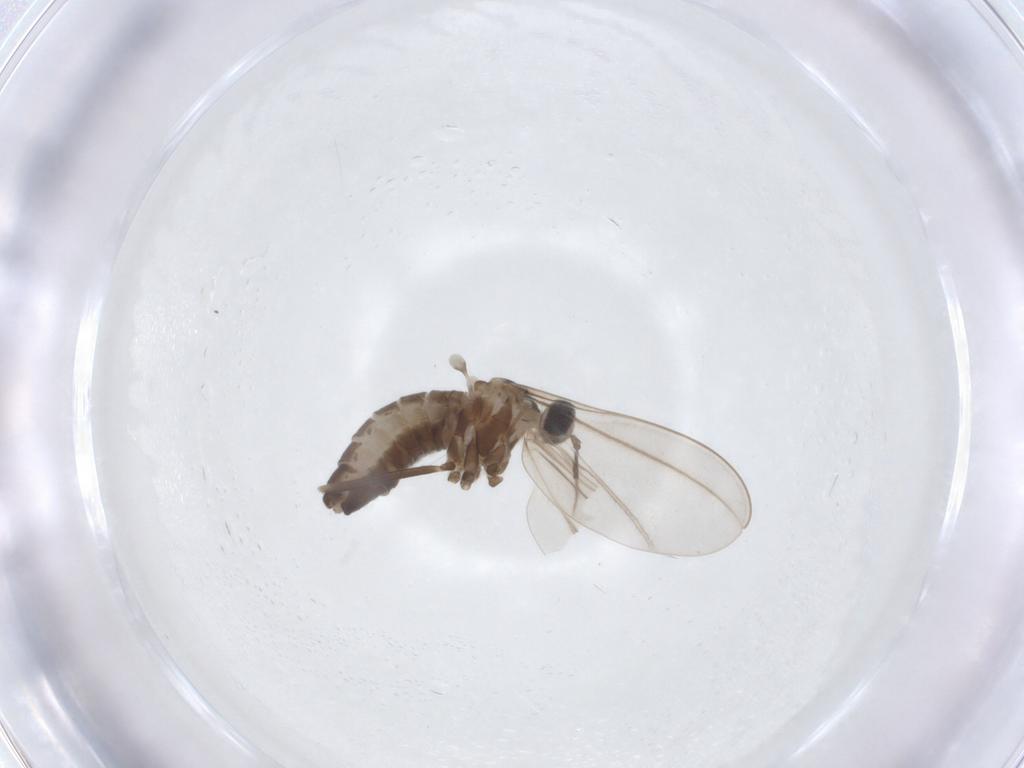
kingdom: Animalia
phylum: Arthropoda
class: Insecta
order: Diptera
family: Cecidomyiidae
